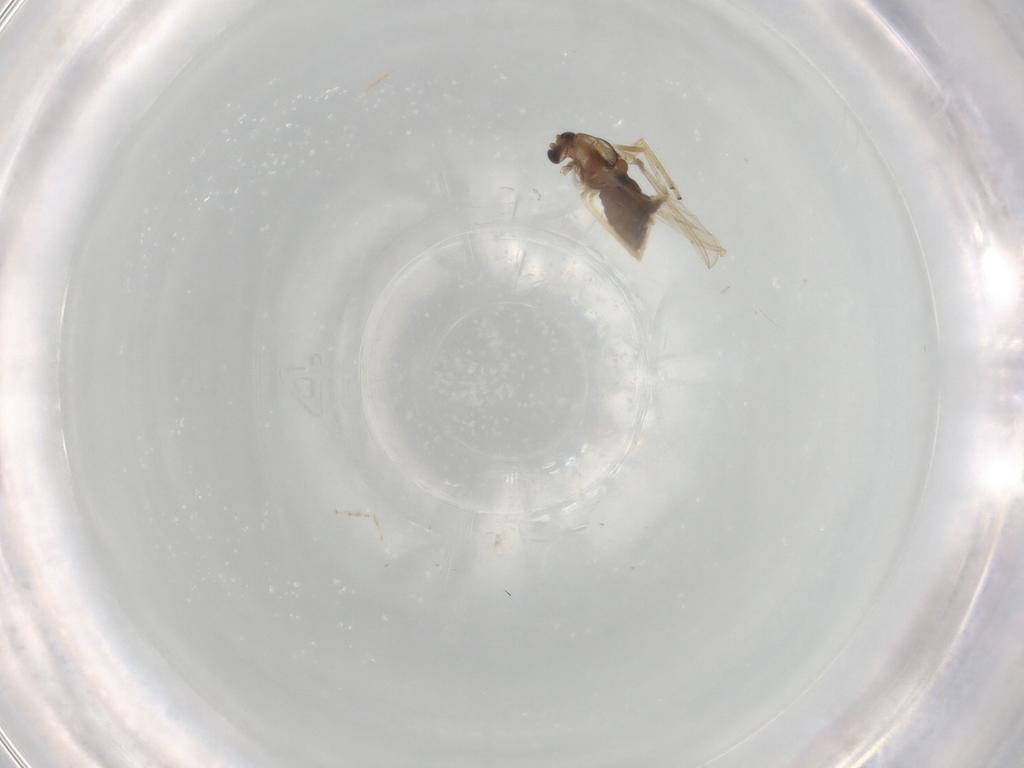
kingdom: Animalia
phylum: Arthropoda
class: Insecta
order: Diptera
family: Chironomidae
